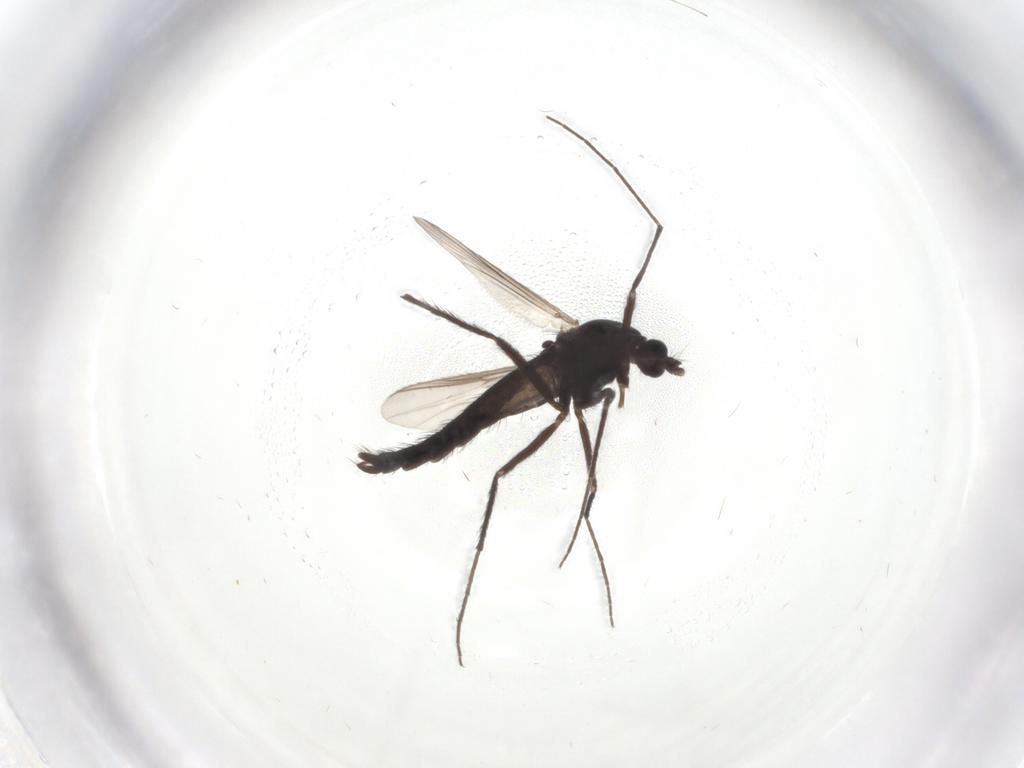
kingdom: Animalia
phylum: Arthropoda
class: Insecta
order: Diptera
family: Chironomidae
